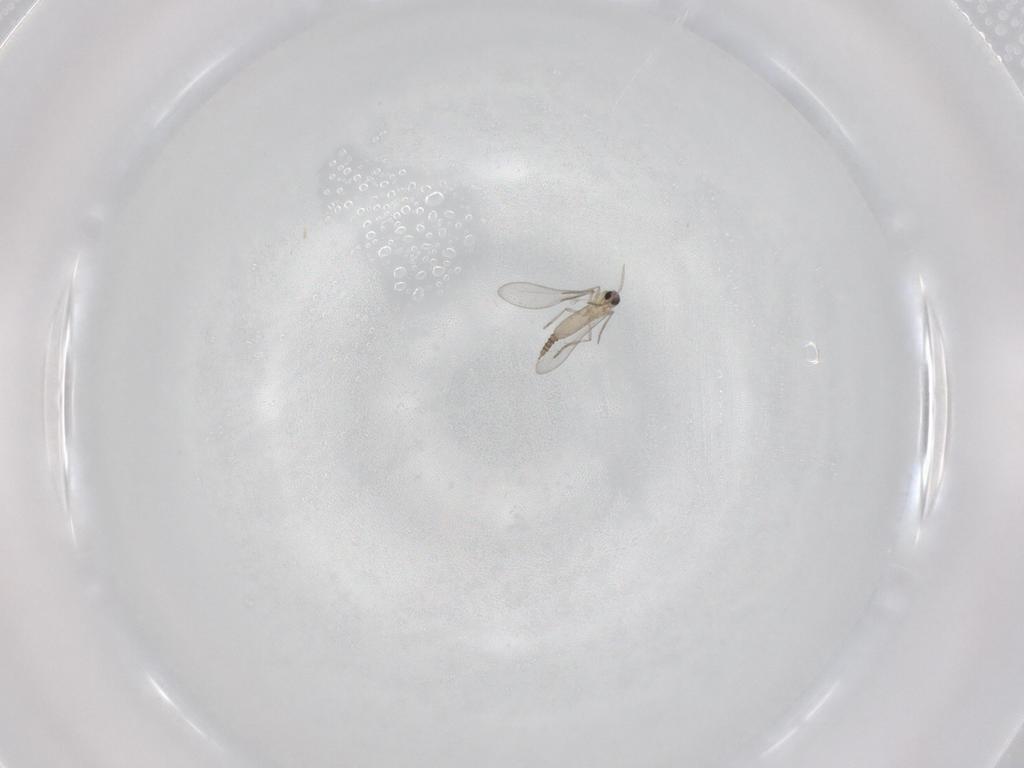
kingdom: Animalia
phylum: Arthropoda
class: Insecta
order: Diptera
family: Cecidomyiidae
